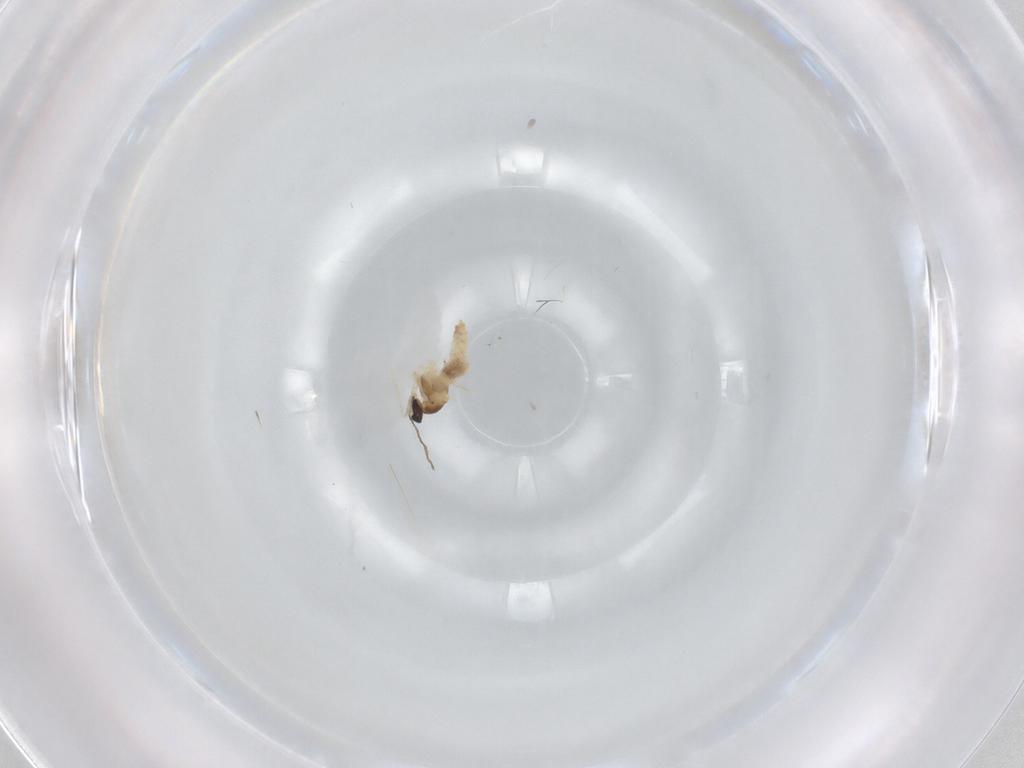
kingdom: Animalia
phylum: Arthropoda
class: Insecta
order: Diptera
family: Cecidomyiidae
